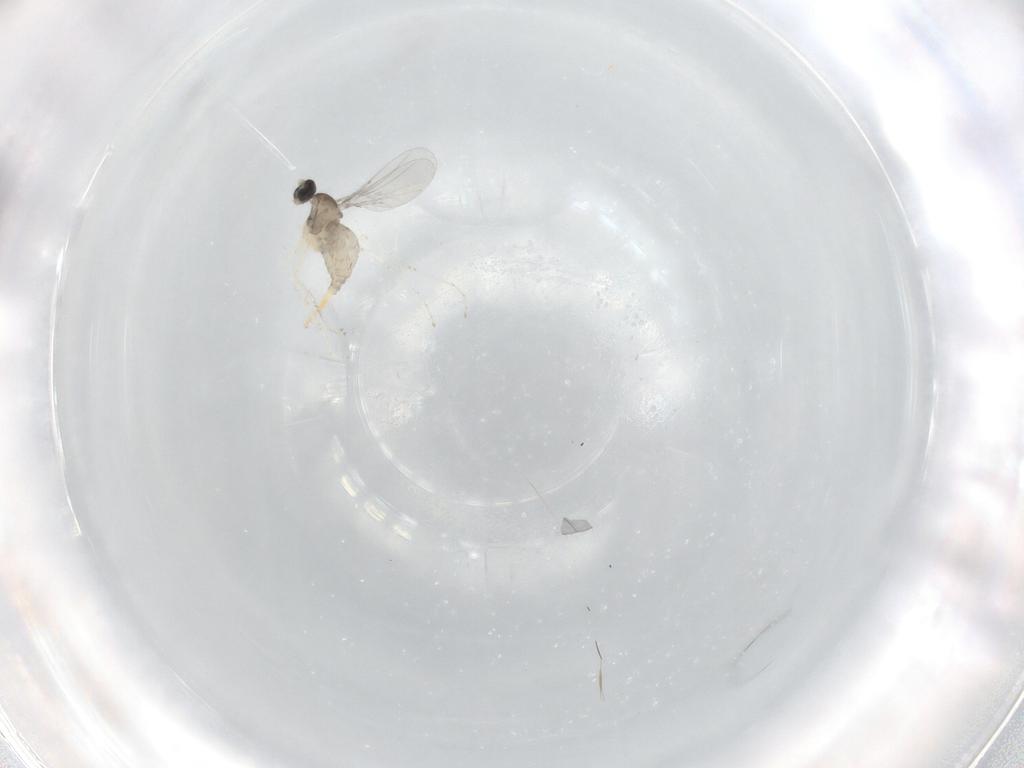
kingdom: Animalia
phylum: Arthropoda
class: Insecta
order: Diptera
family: Cecidomyiidae
